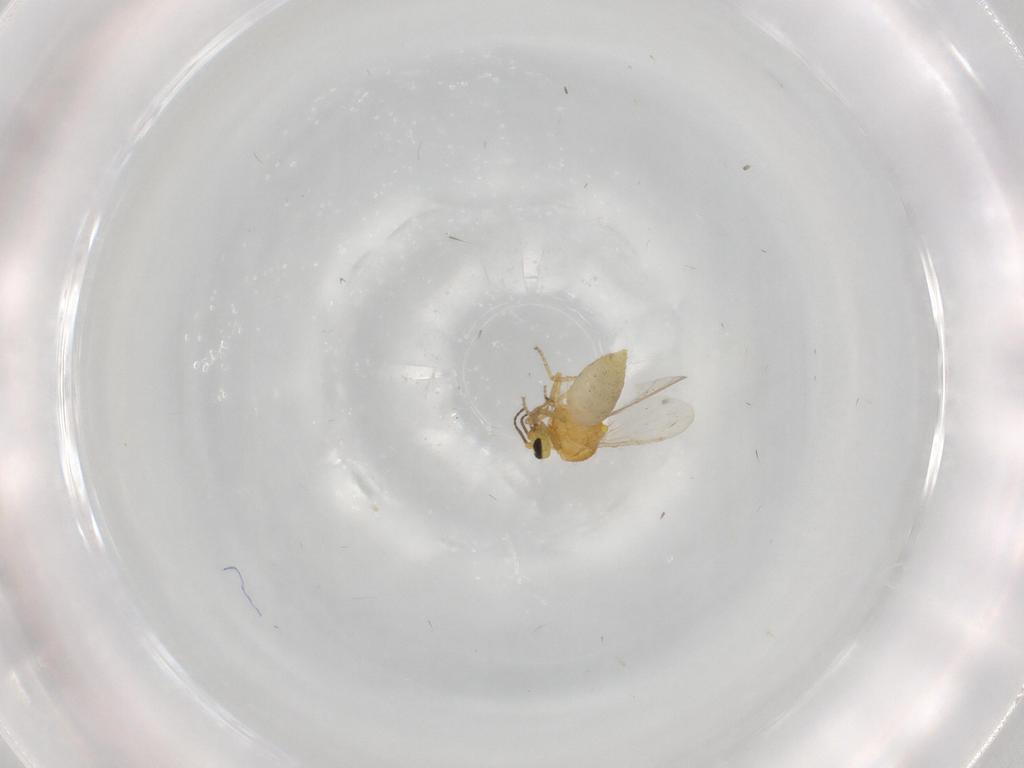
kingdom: Animalia
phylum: Arthropoda
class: Insecta
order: Diptera
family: Ceratopogonidae
